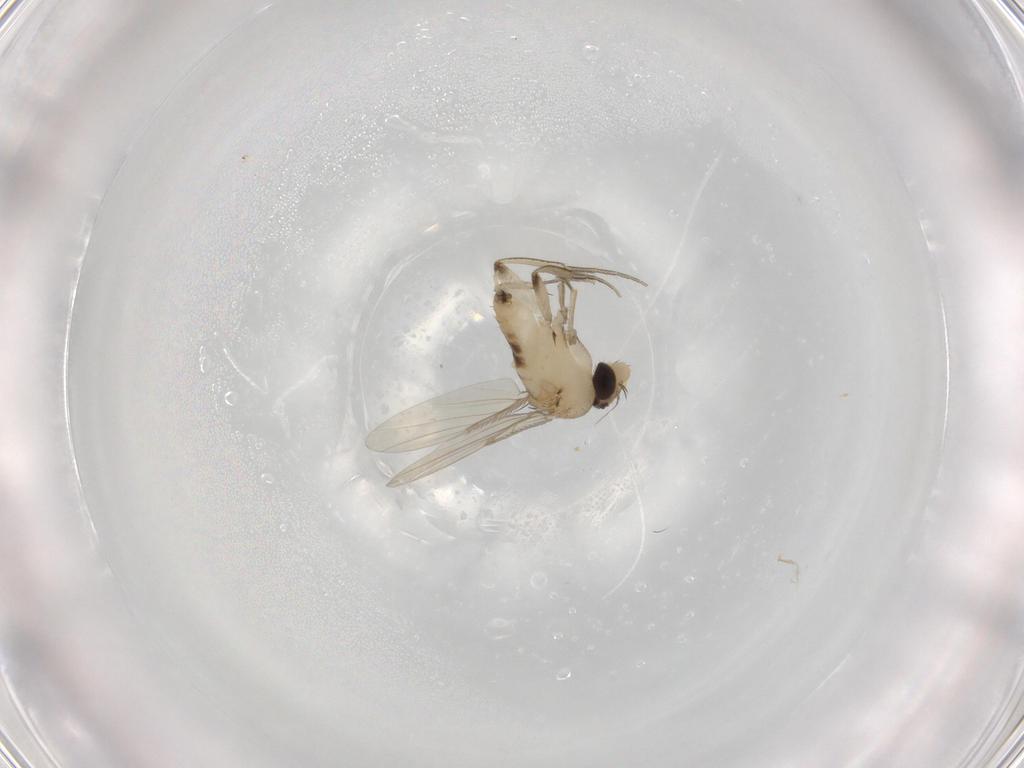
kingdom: Animalia
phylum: Arthropoda
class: Insecta
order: Diptera
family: Phoridae
